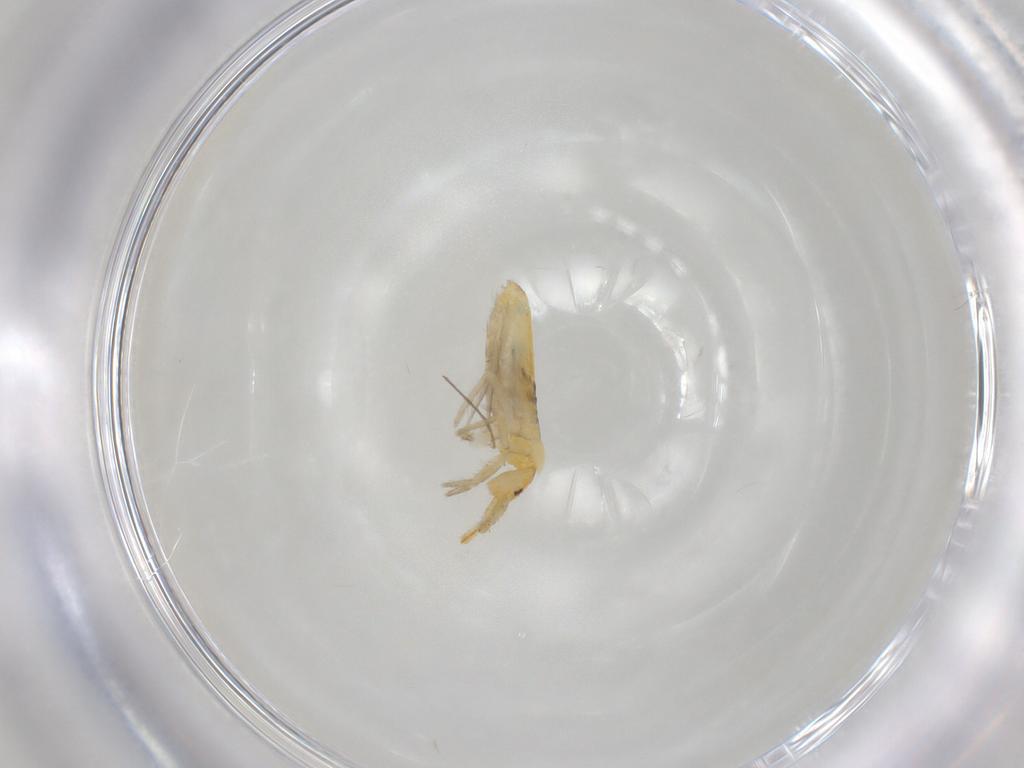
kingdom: Animalia
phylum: Arthropoda
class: Collembola
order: Entomobryomorpha
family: Entomobryidae
